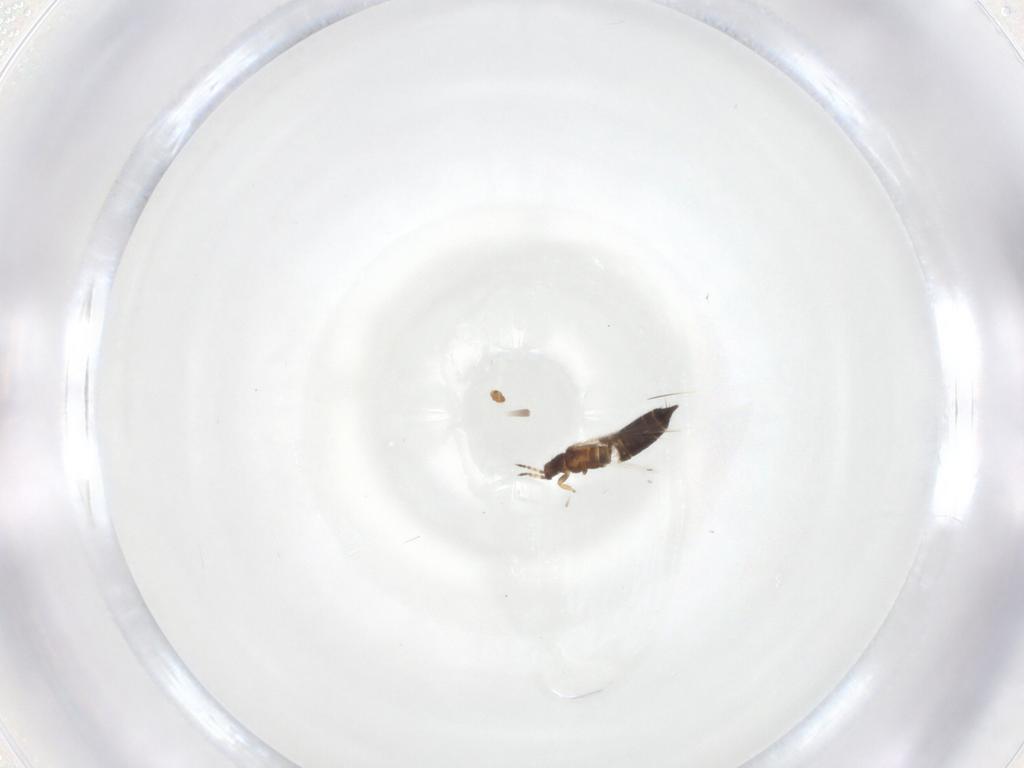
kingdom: Animalia
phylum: Arthropoda
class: Insecta
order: Thysanoptera
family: Thripidae
